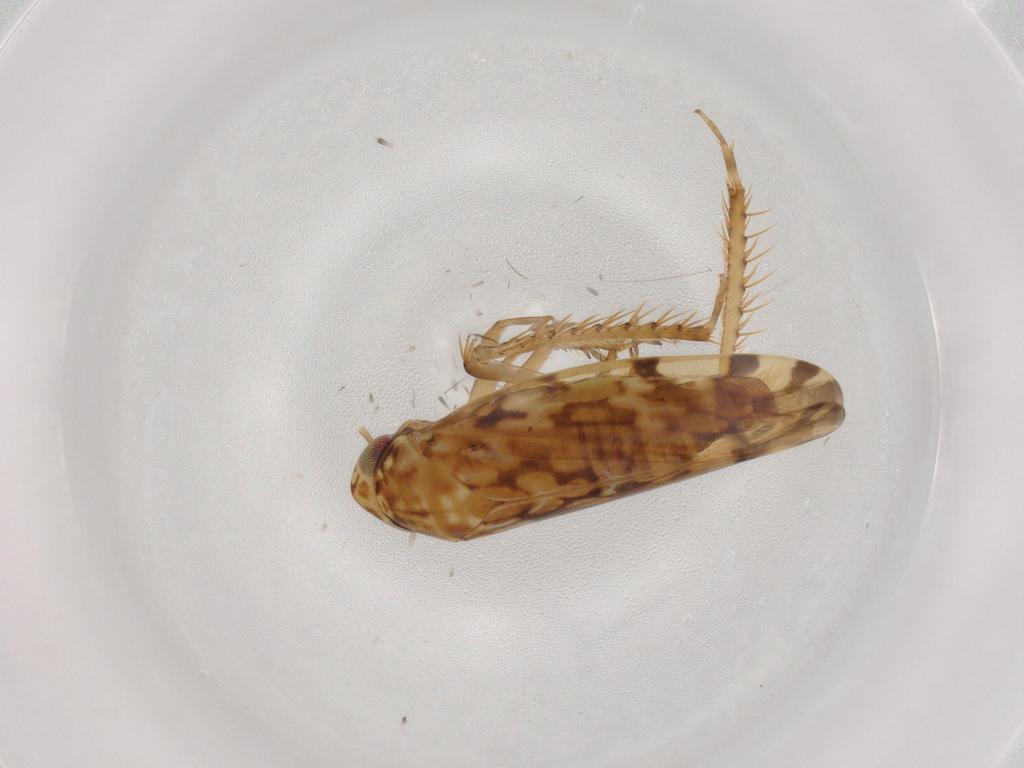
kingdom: Animalia
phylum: Arthropoda
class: Insecta
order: Hemiptera
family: Cicadellidae
